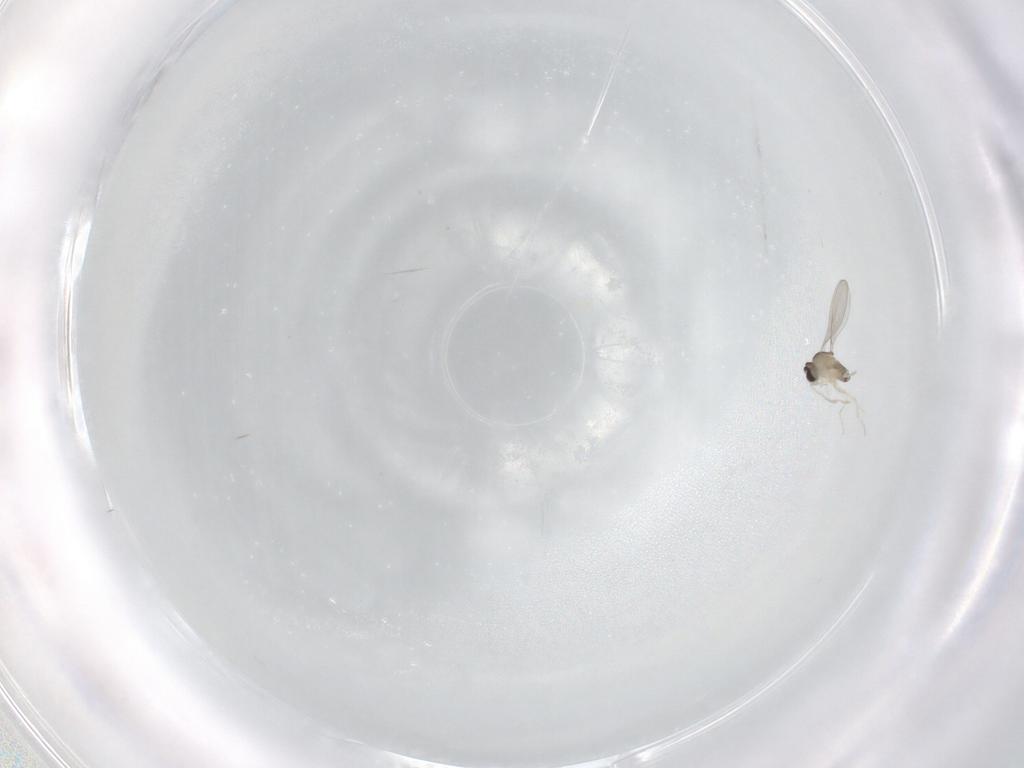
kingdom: Animalia
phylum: Arthropoda
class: Insecta
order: Diptera
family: Cecidomyiidae
